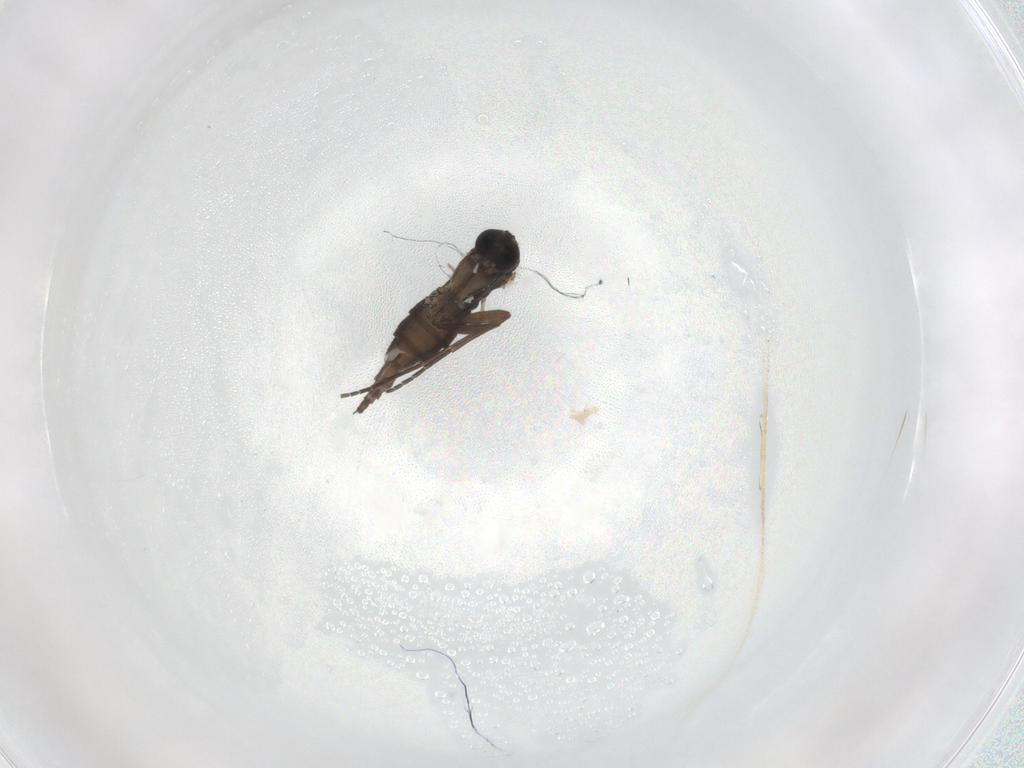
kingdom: Animalia
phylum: Arthropoda
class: Insecta
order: Diptera
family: Sciaridae
